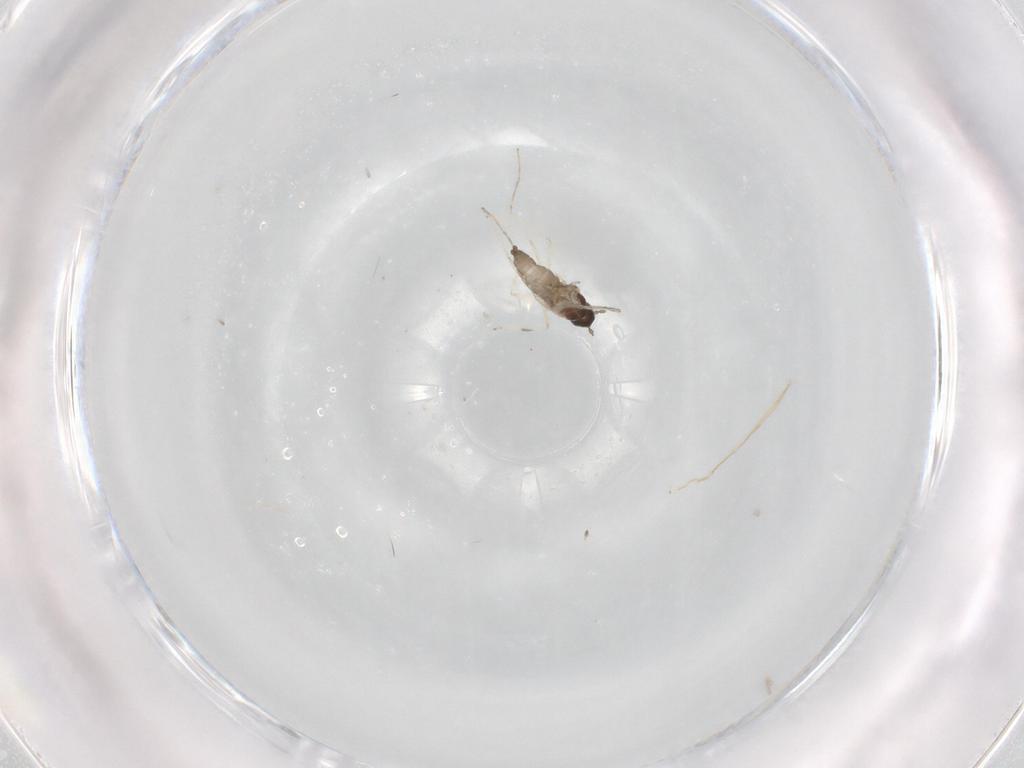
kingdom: Animalia
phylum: Arthropoda
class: Insecta
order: Diptera
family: Cecidomyiidae
